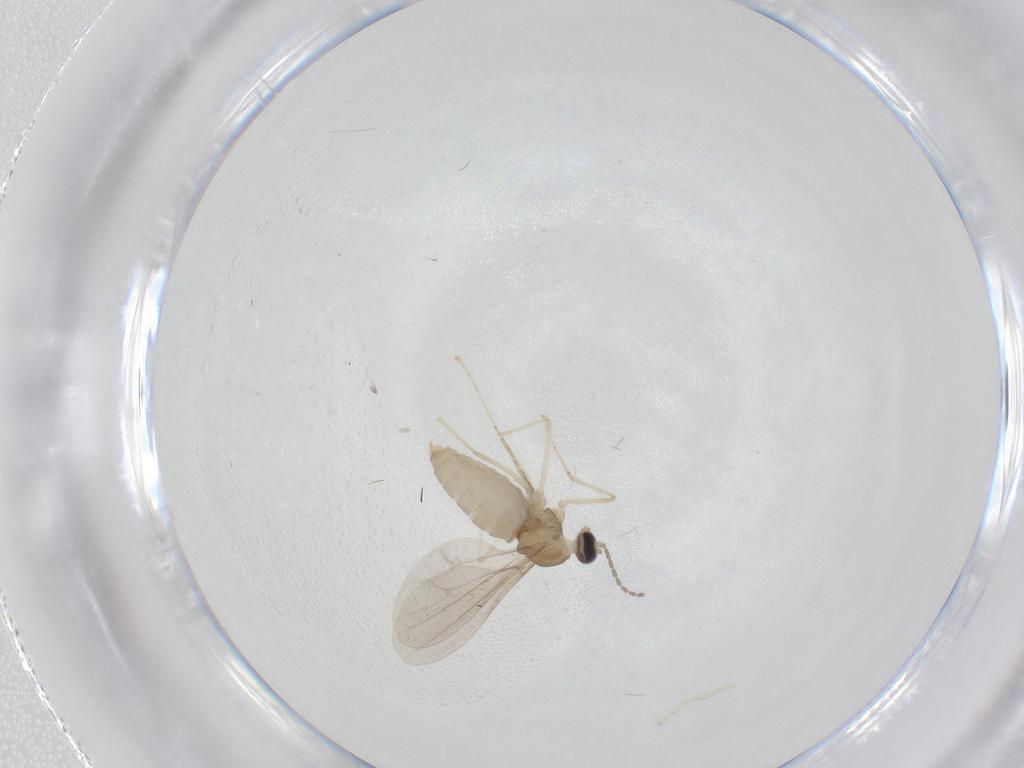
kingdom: Animalia
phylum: Arthropoda
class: Insecta
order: Diptera
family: Cecidomyiidae
